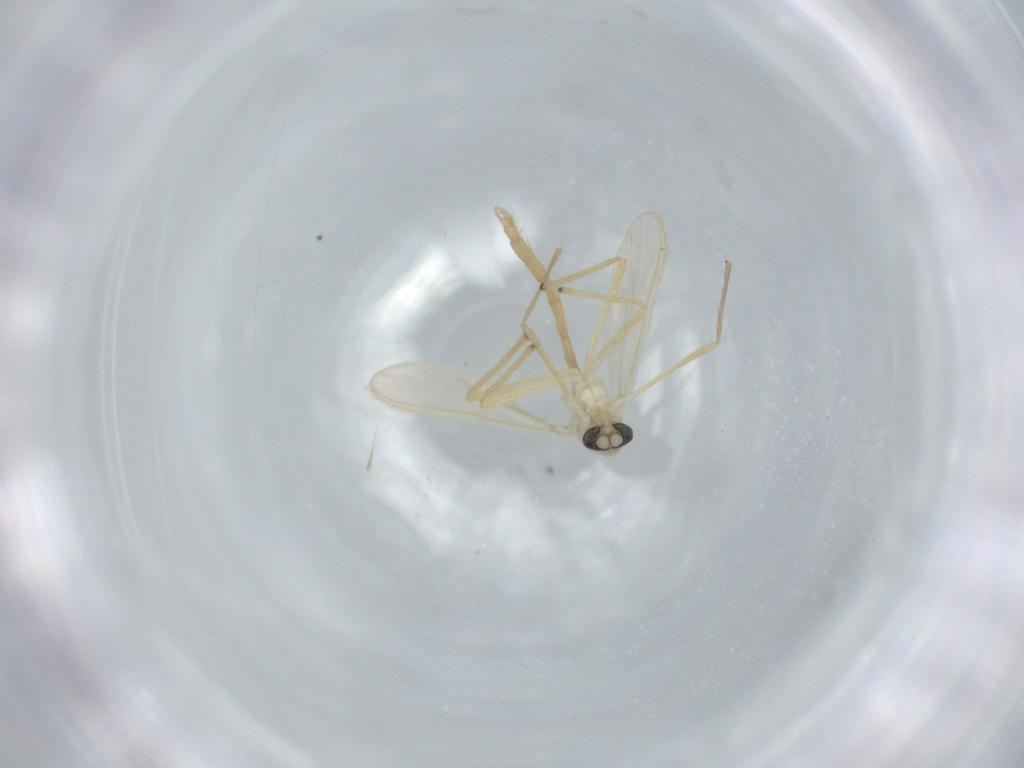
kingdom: Animalia
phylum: Arthropoda
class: Insecta
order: Diptera
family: Chironomidae
